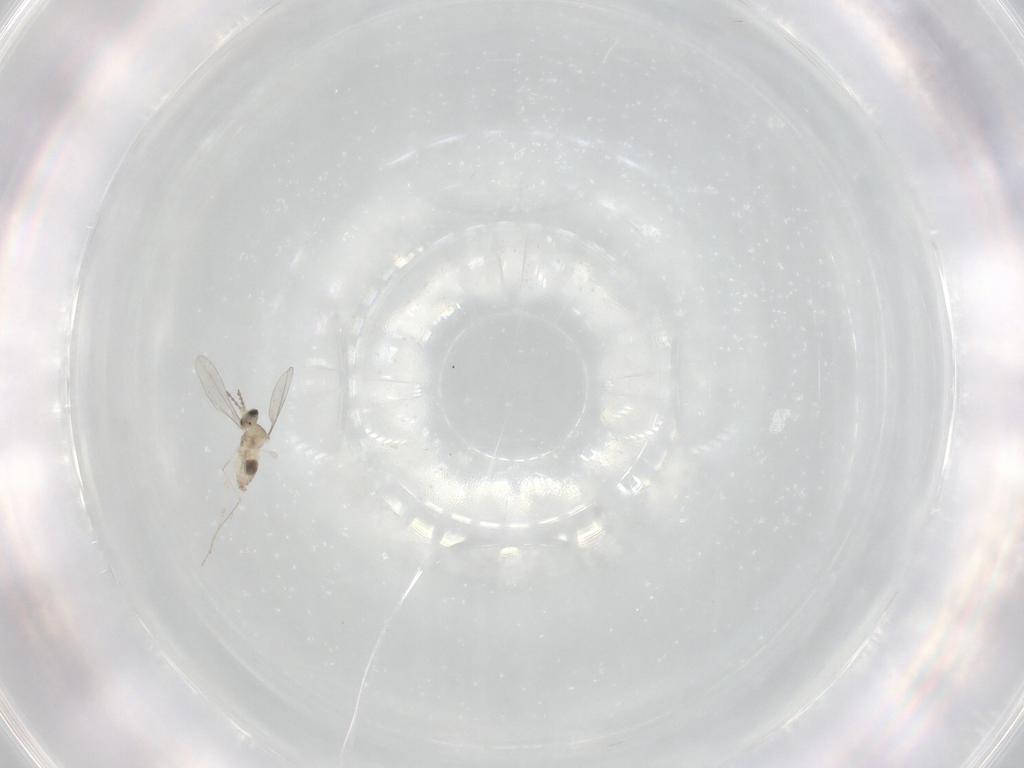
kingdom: Animalia
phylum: Arthropoda
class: Insecta
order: Diptera
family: Cecidomyiidae
